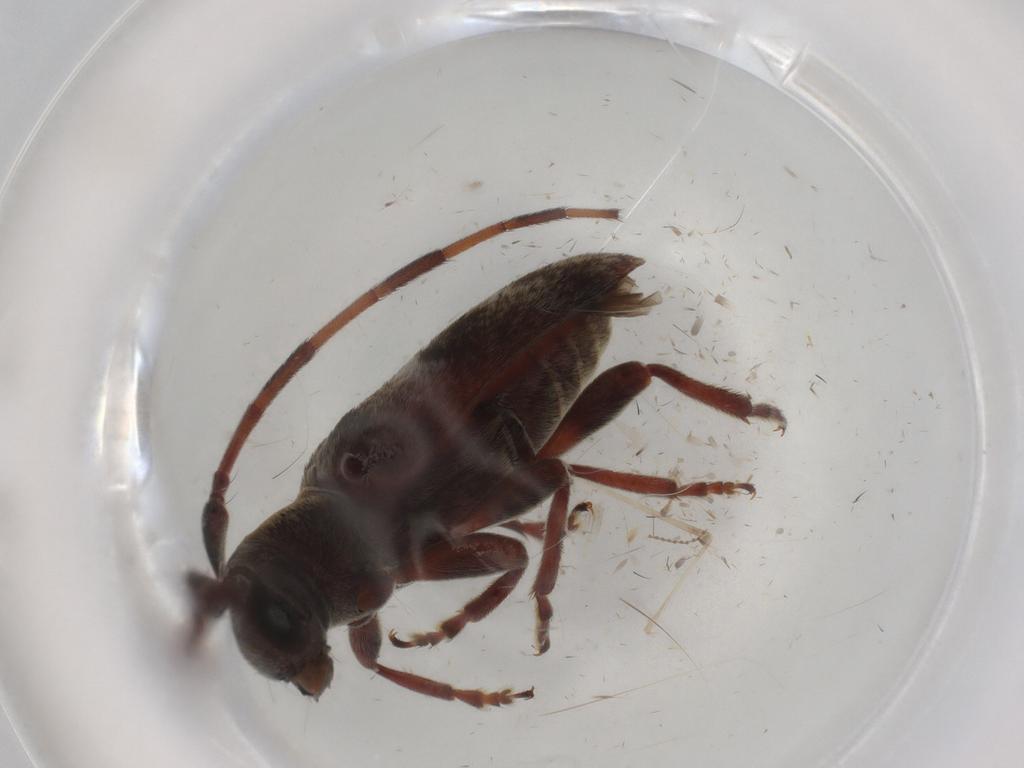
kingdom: Animalia
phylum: Arthropoda
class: Insecta
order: Coleoptera
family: Cerambycidae
